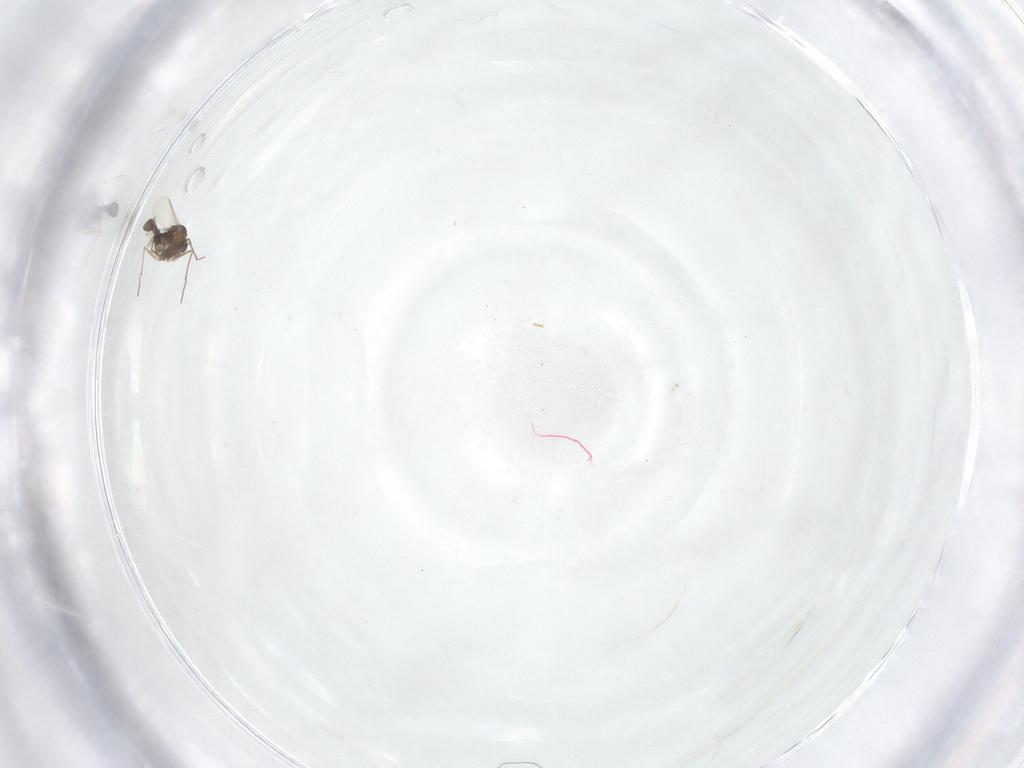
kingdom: Animalia
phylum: Arthropoda
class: Insecta
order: Diptera
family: Chironomidae
